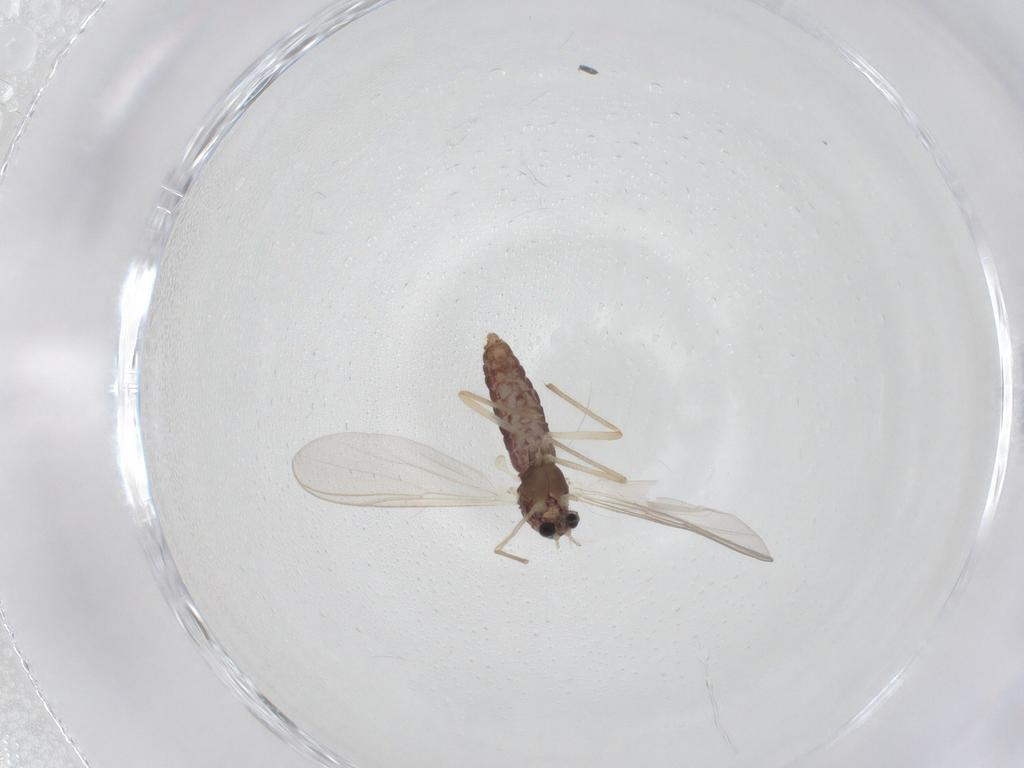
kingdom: Animalia
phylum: Arthropoda
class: Insecta
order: Diptera
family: Chironomidae
